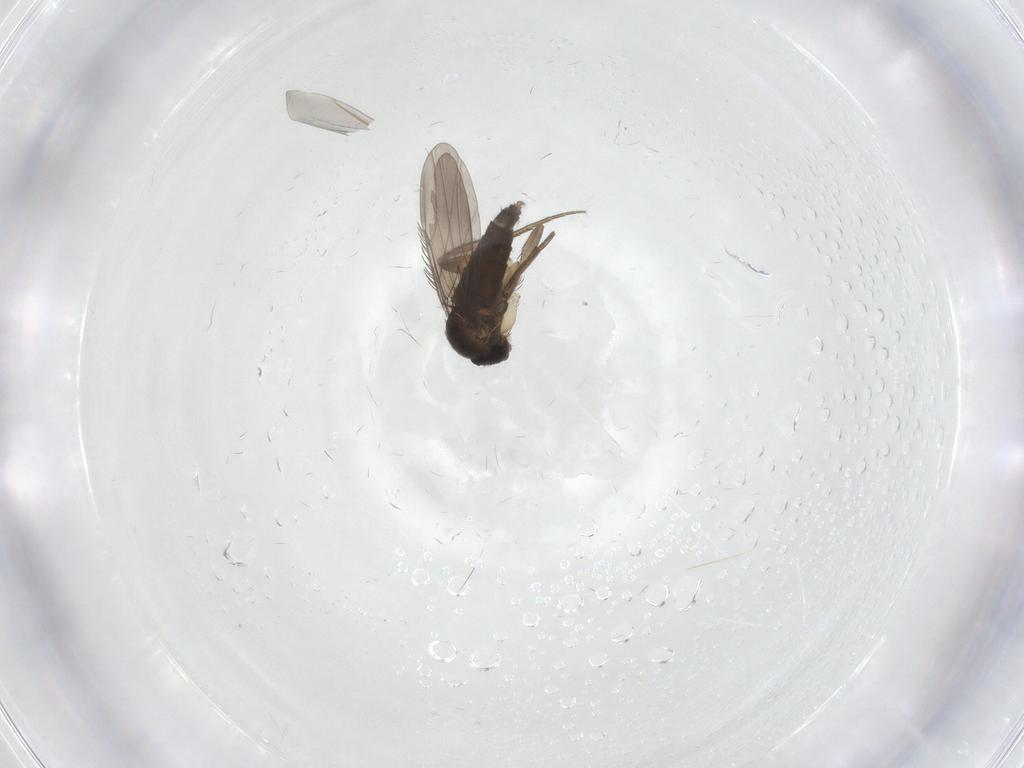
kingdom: Animalia
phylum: Arthropoda
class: Insecta
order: Diptera
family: Phoridae
